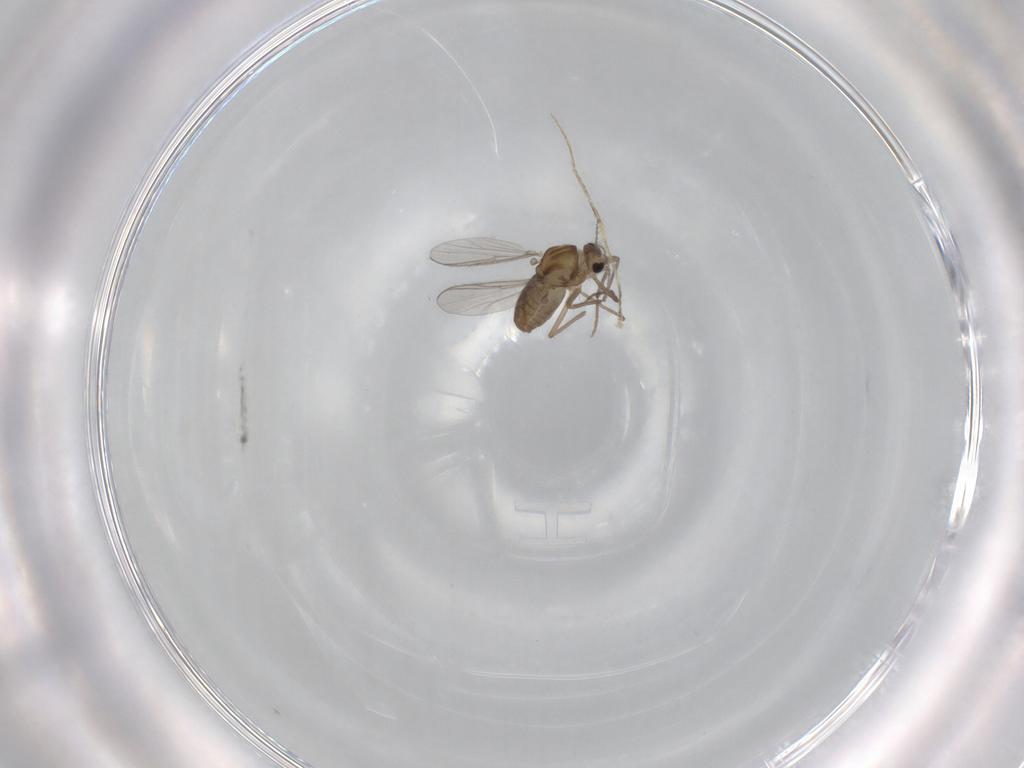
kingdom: Animalia
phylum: Arthropoda
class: Insecta
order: Diptera
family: Chironomidae
